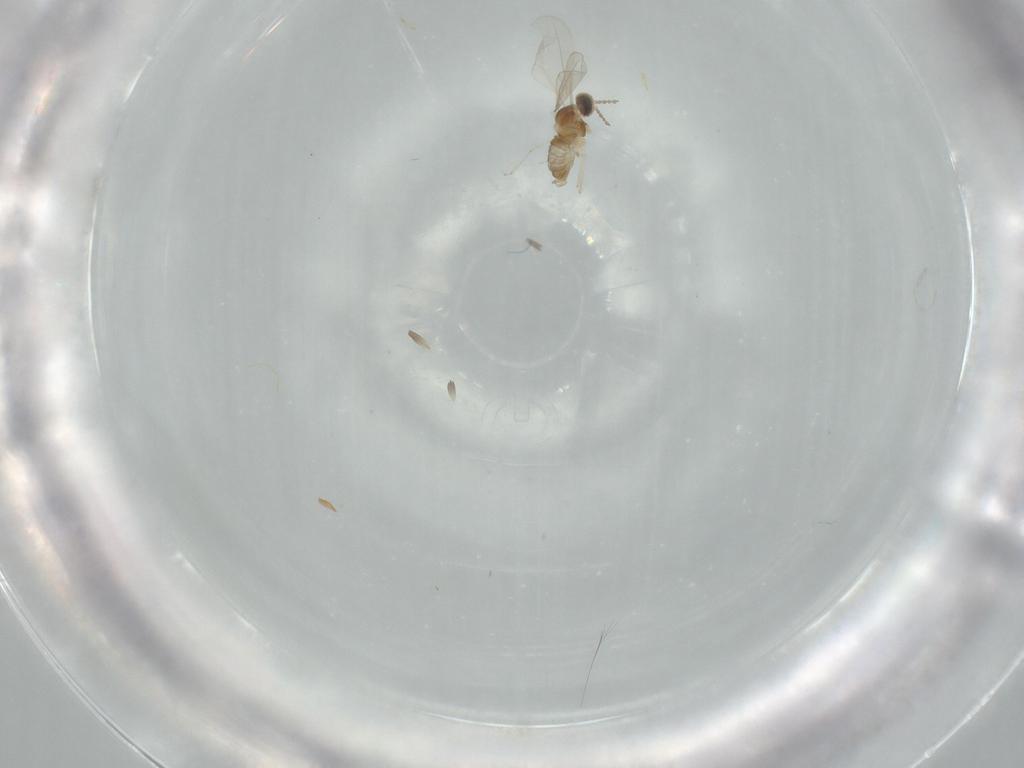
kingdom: Animalia
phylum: Arthropoda
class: Insecta
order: Diptera
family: Cecidomyiidae
